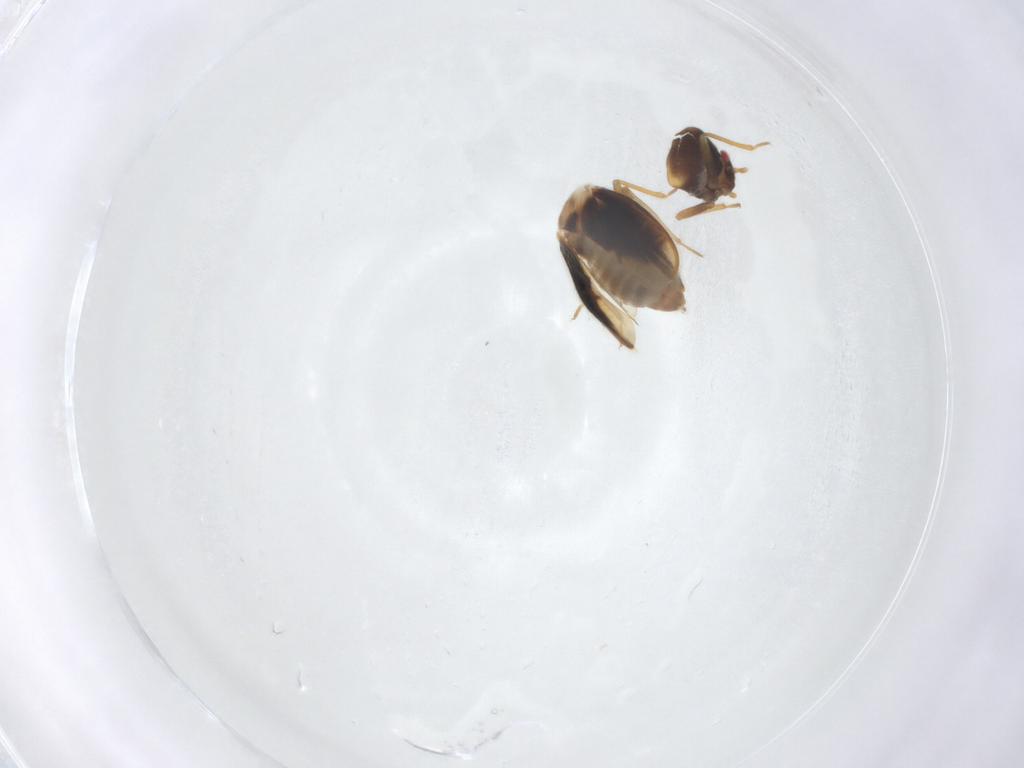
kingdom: Animalia
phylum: Arthropoda
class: Insecta
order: Hemiptera
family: Schizopteridae
